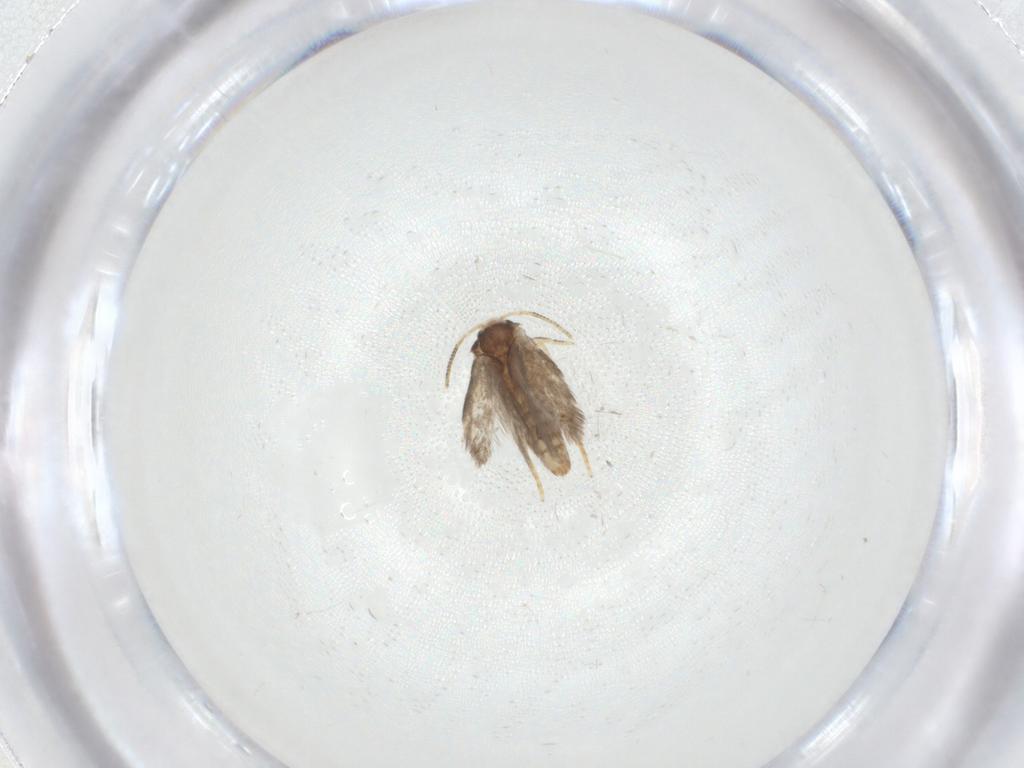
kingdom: Animalia
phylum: Arthropoda
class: Insecta
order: Lepidoptera
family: Nepticulidae
